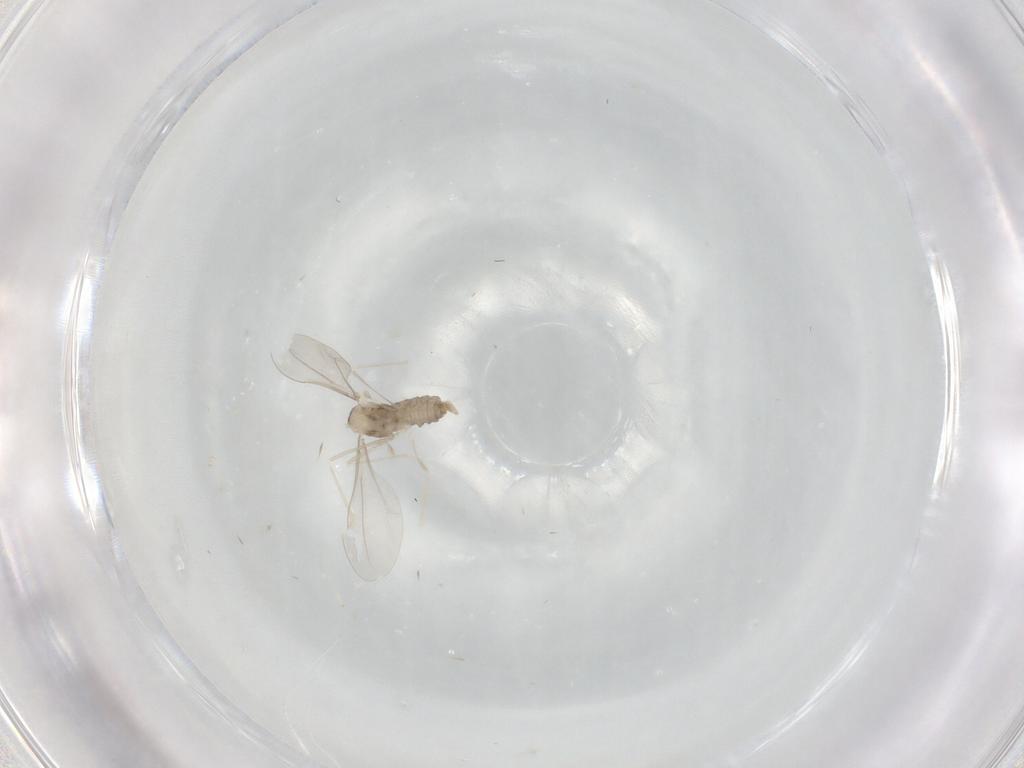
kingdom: Animalia
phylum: Arthropoda
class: Insecta
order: Diptera
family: Cecidomyiidae
